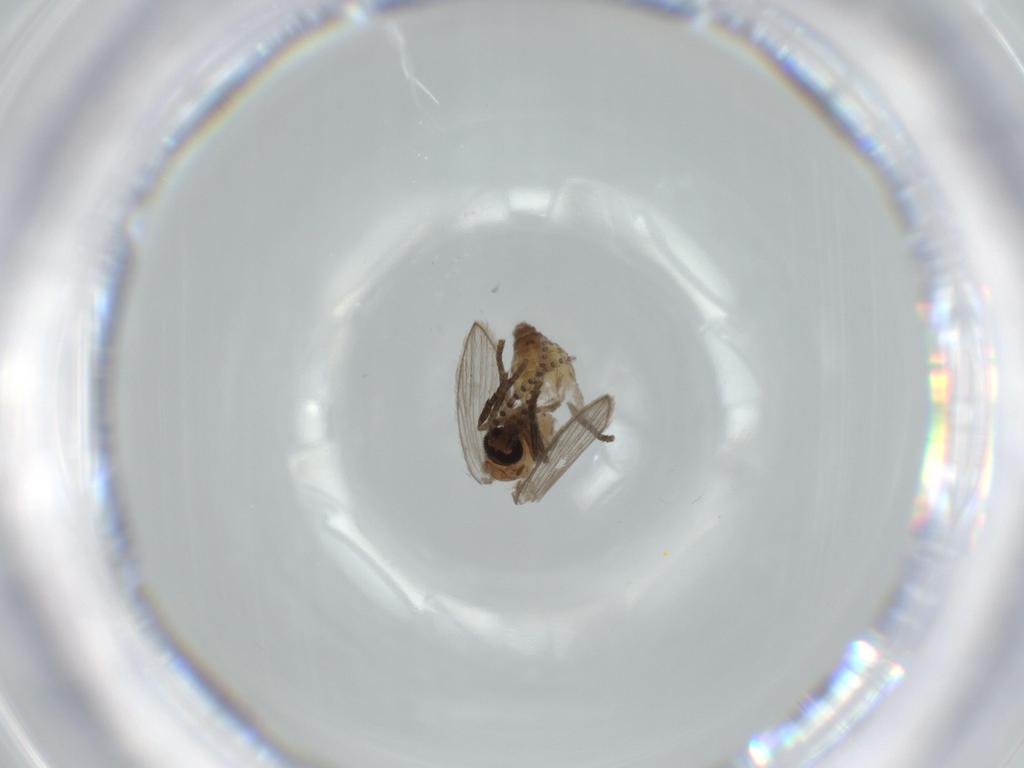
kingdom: Animalia
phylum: Arthropoda
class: Insecta
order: Diptera
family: Psychodidae
